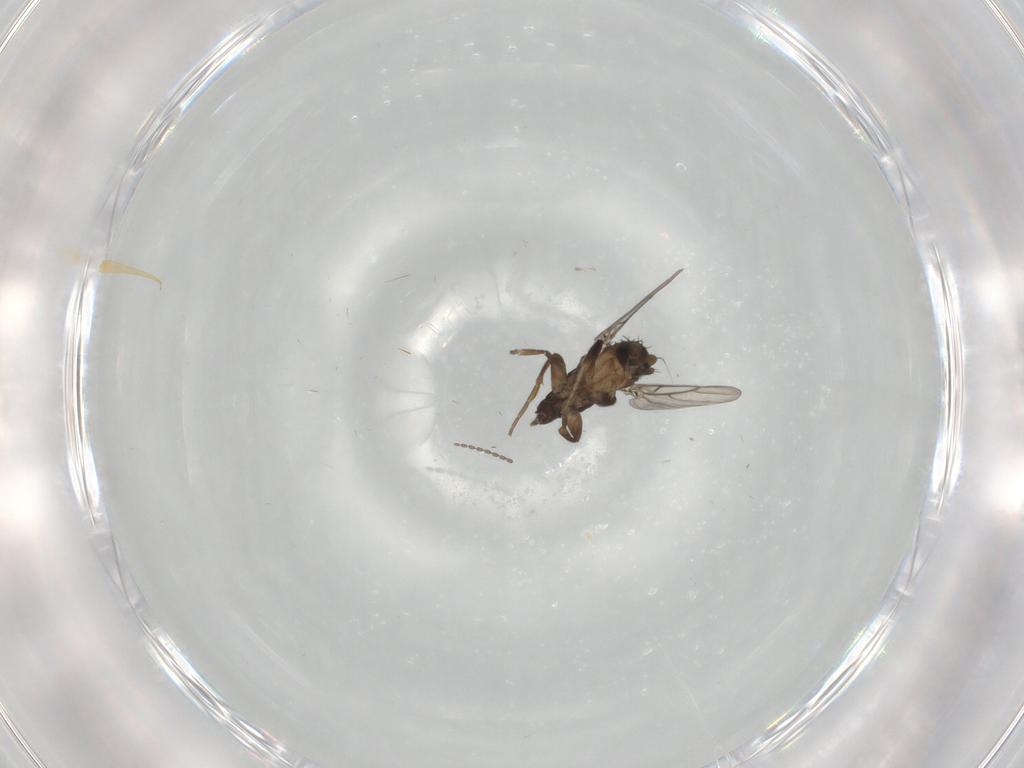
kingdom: Animalia
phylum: Arthropoda
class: Insecta
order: Diptera
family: Phoridae
